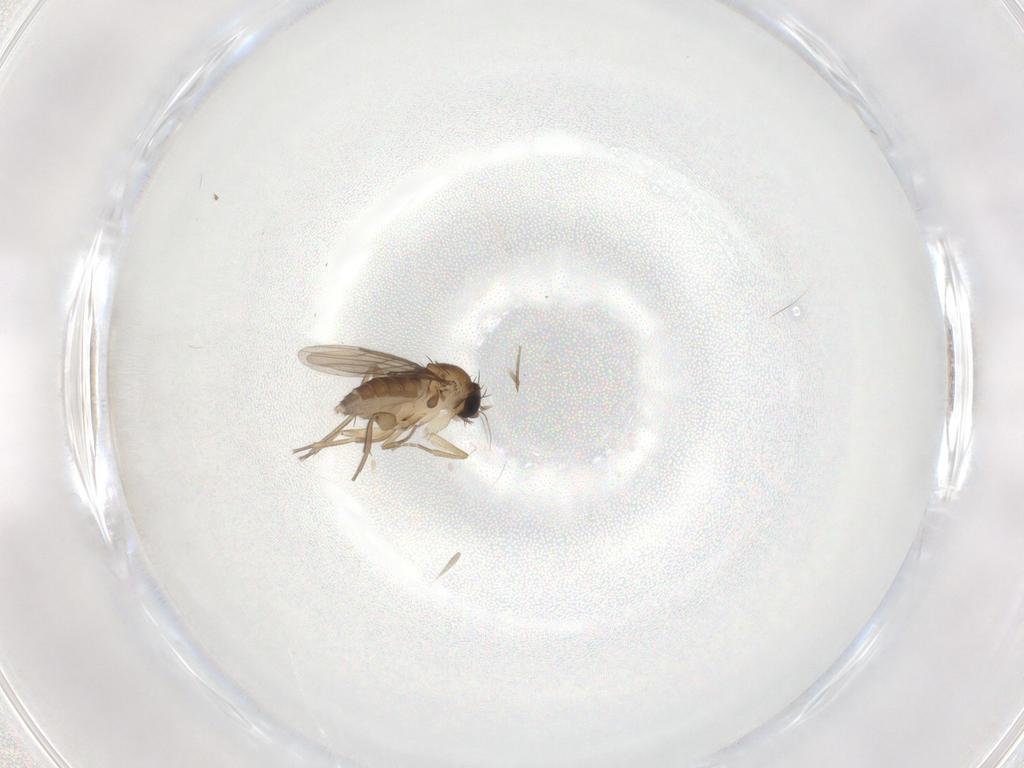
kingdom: Animalia
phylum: Arthropoda
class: Insecta
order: Diptera
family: Phoridae
